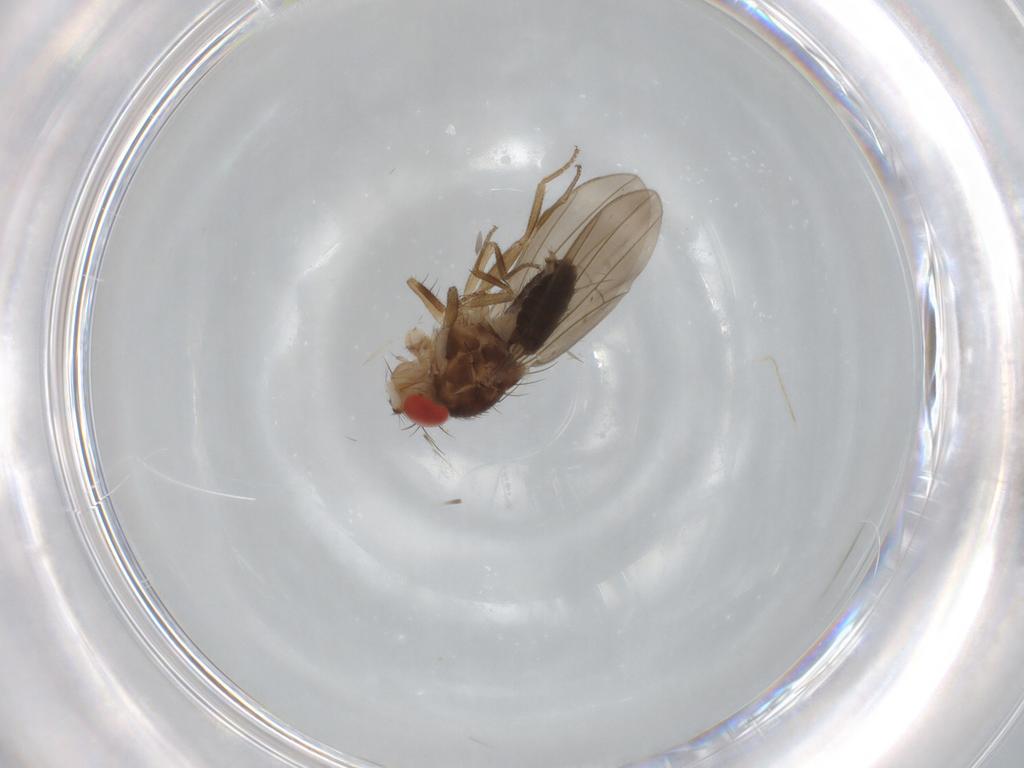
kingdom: Animalia
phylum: Arthropoda
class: Insecta
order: Diptera
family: Drosophilidae
